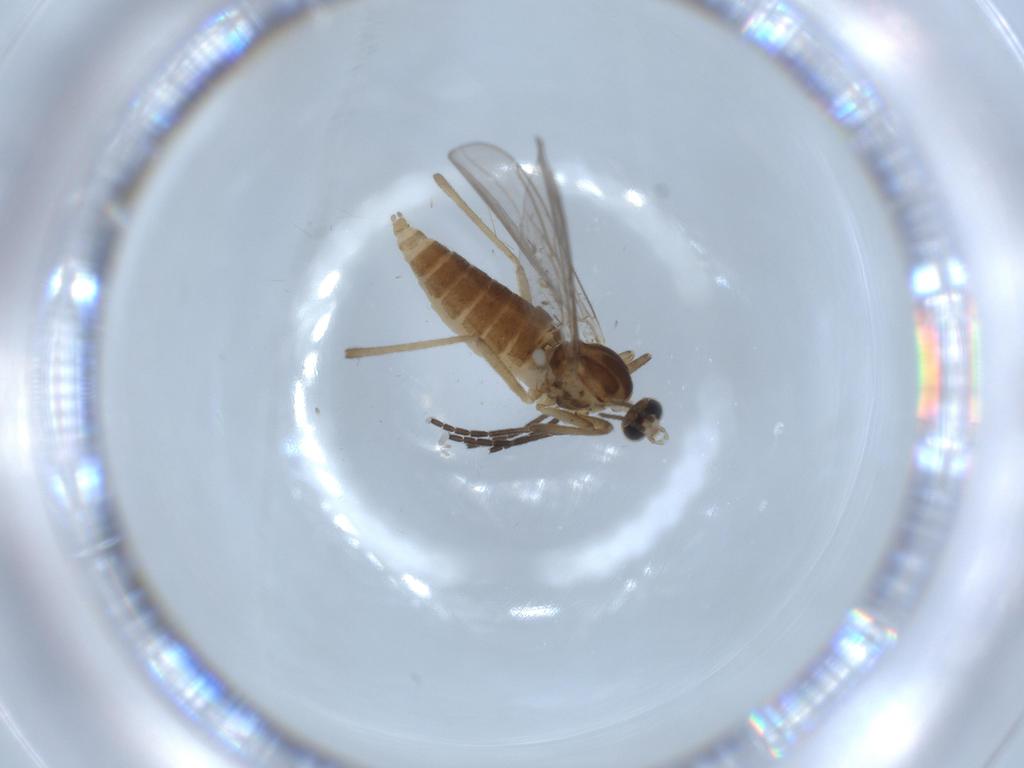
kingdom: Animalia
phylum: Arthropoda
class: Insecta
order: Diptera
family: Cecidomyiidae
